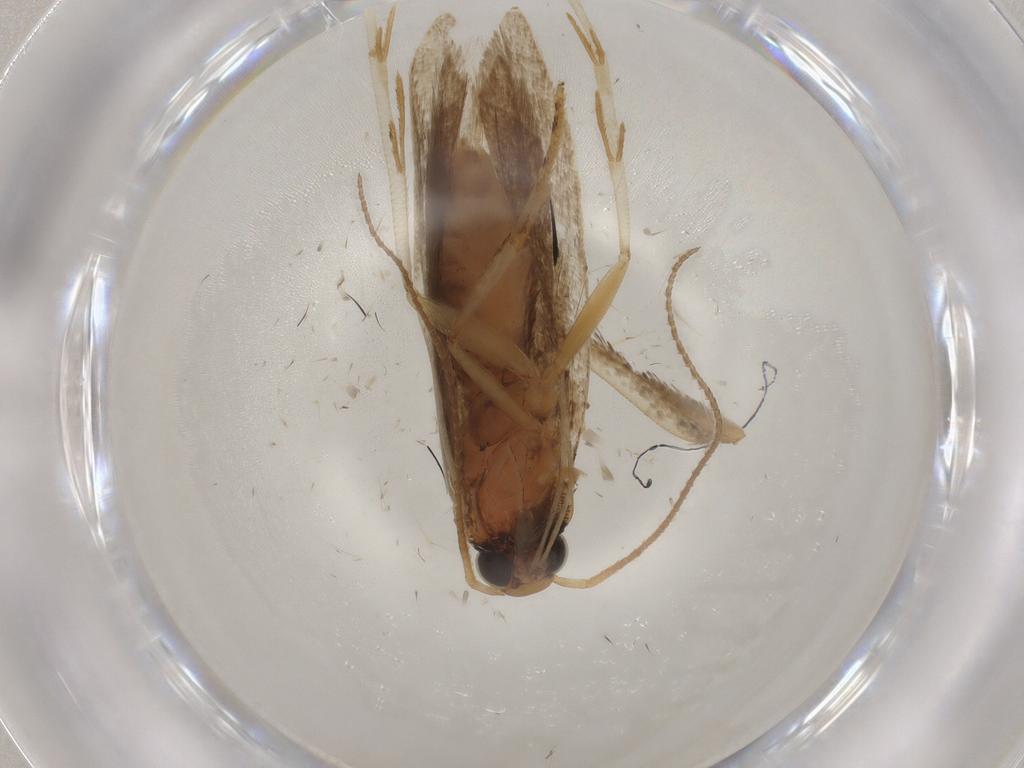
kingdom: Animalia
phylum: Arthropoda
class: Insecta
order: Lepidoptera
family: Gelechiidae
